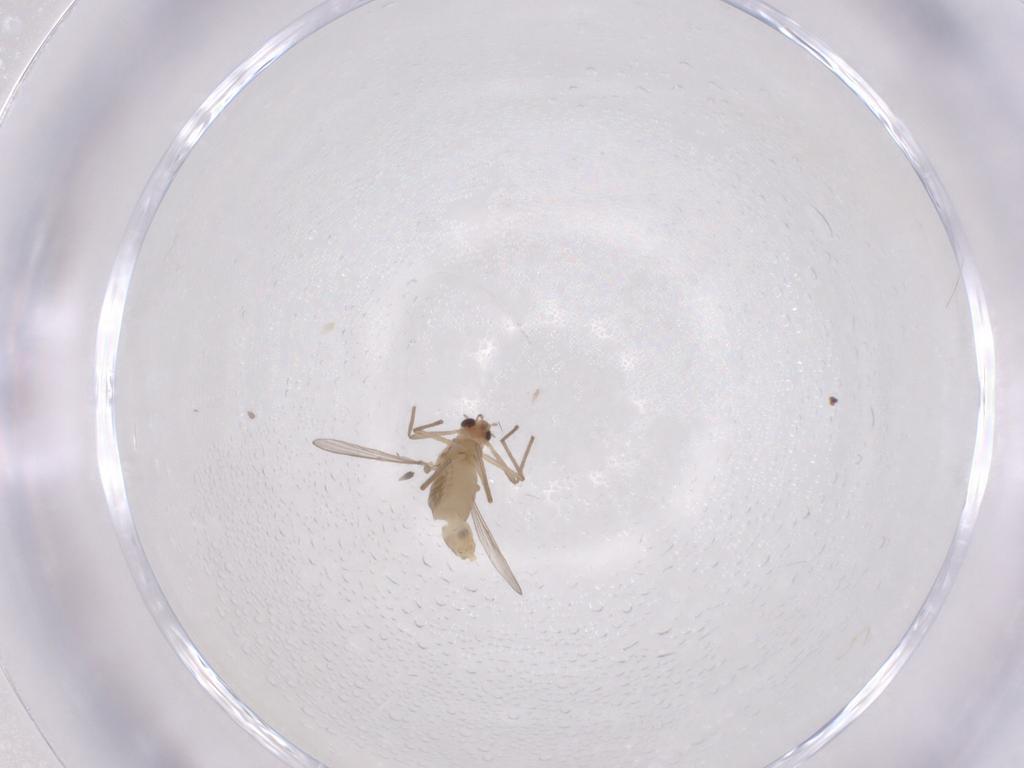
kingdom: Animalia
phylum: Arthropoda
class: Insecta
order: Diptera
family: Chironomidae
